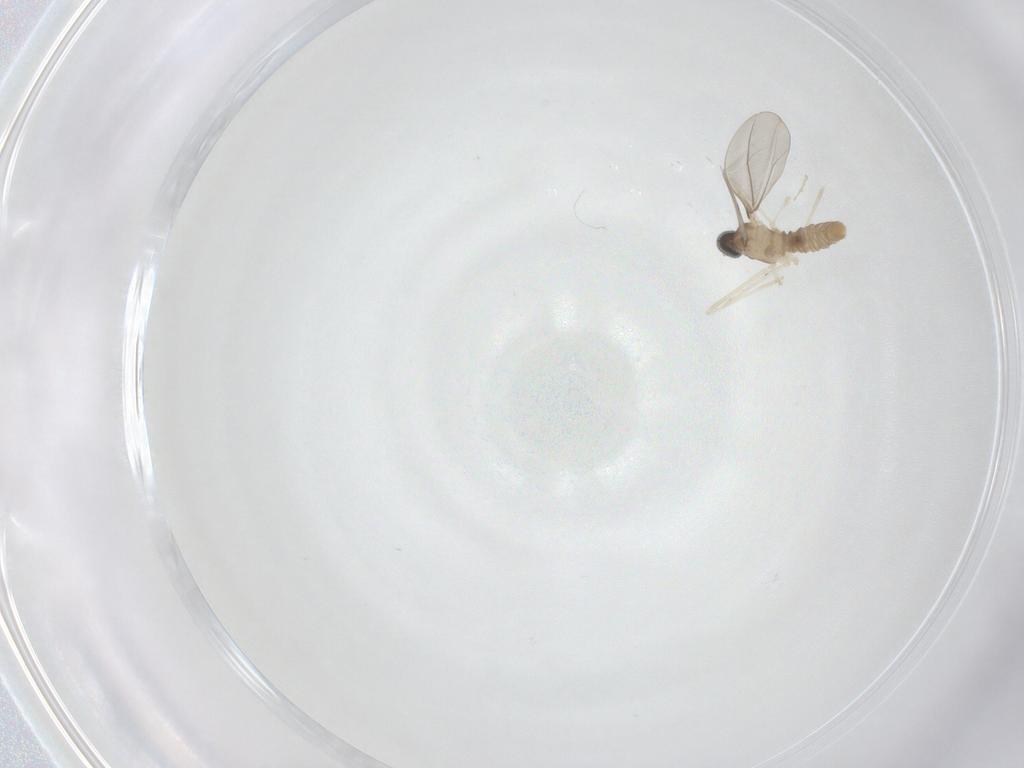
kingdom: Animalia
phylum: Arthropoda
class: Insecta
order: Diptera
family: Cecidomyiidae
